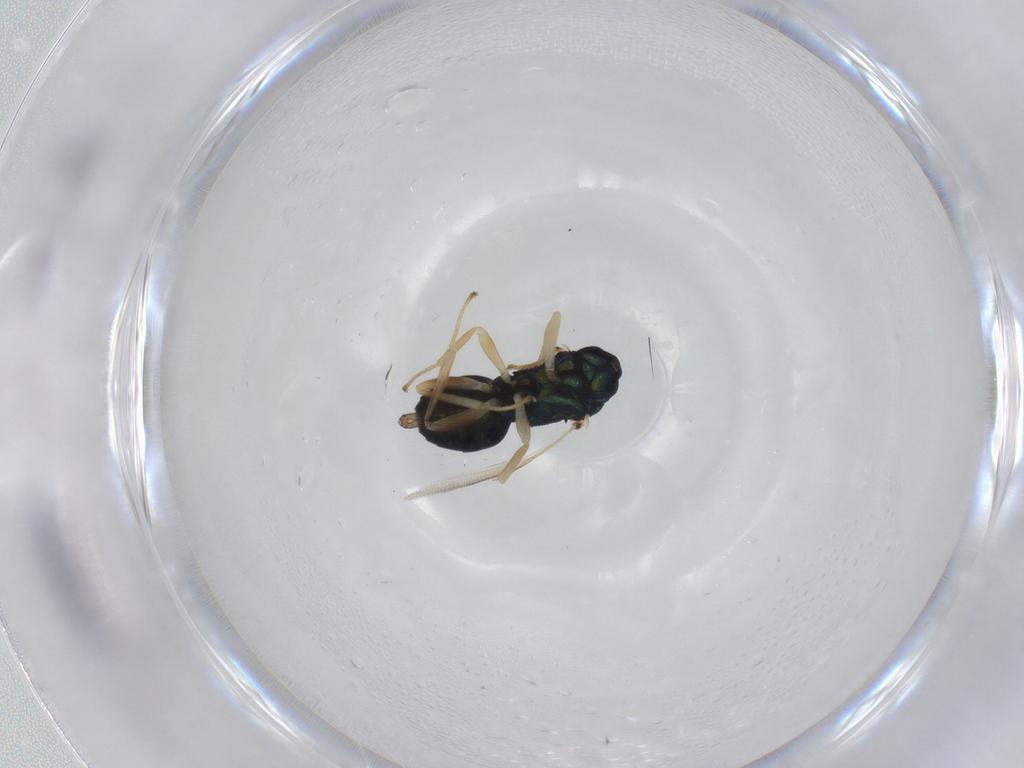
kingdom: Animalia
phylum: Arthropoda
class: Insecta
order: Hymenoptera
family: Pteromalidae
